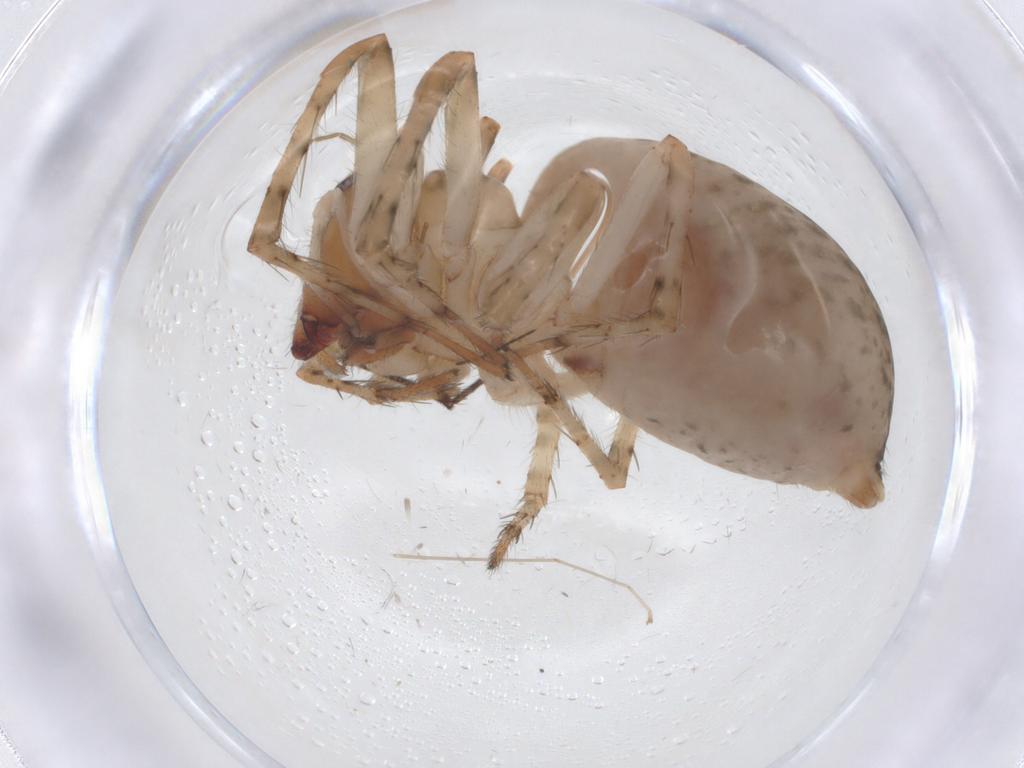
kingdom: Animalia
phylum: Arthropoda
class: Arachnida
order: Araneae
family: Dictynidae
